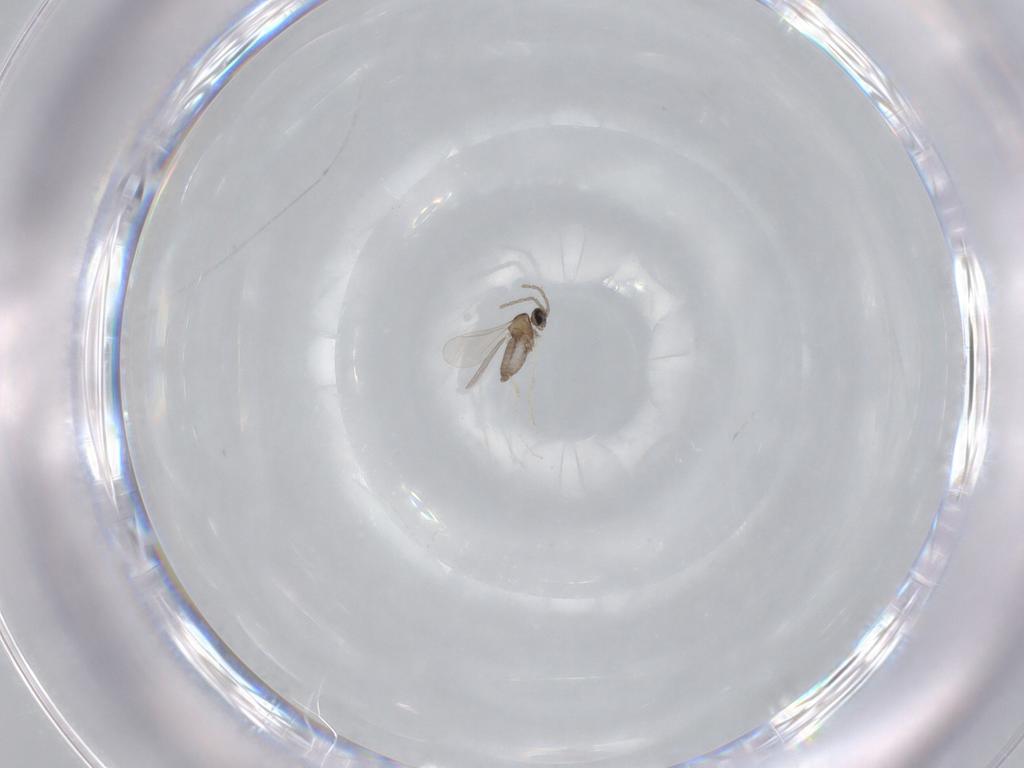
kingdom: Animalia
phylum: Arthropoda
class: Insecta
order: Diptera
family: Cecidomyiidae
